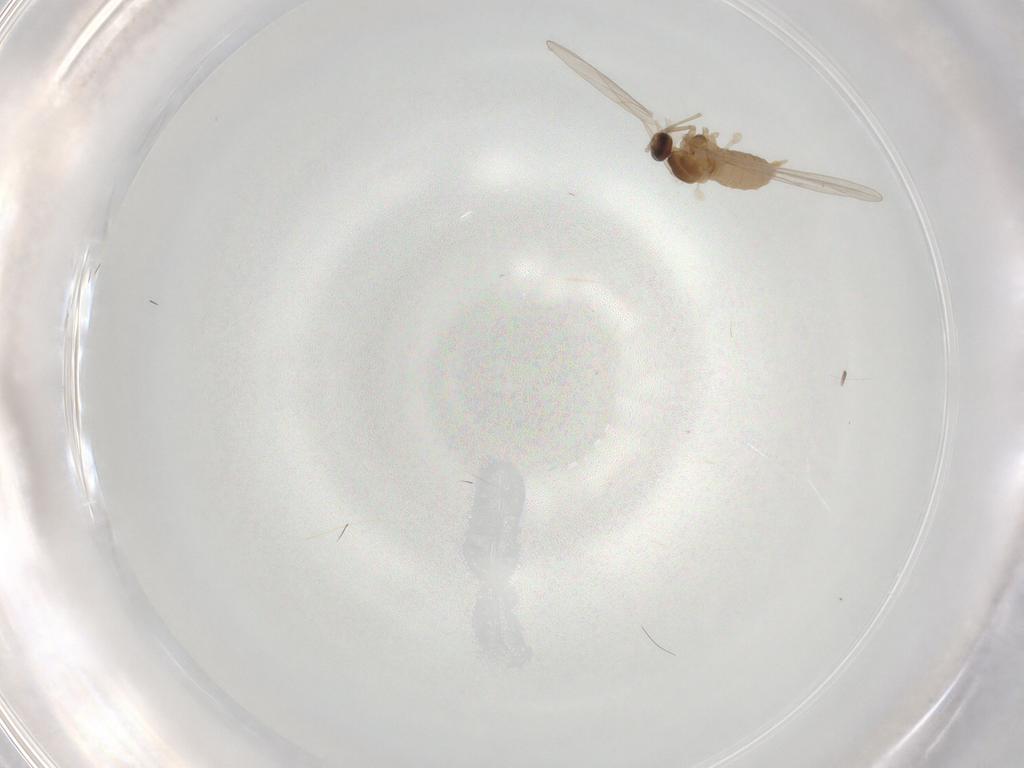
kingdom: Animalia
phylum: Arthropoda
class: Insecta
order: Diptera
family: Cecidomyiidae
